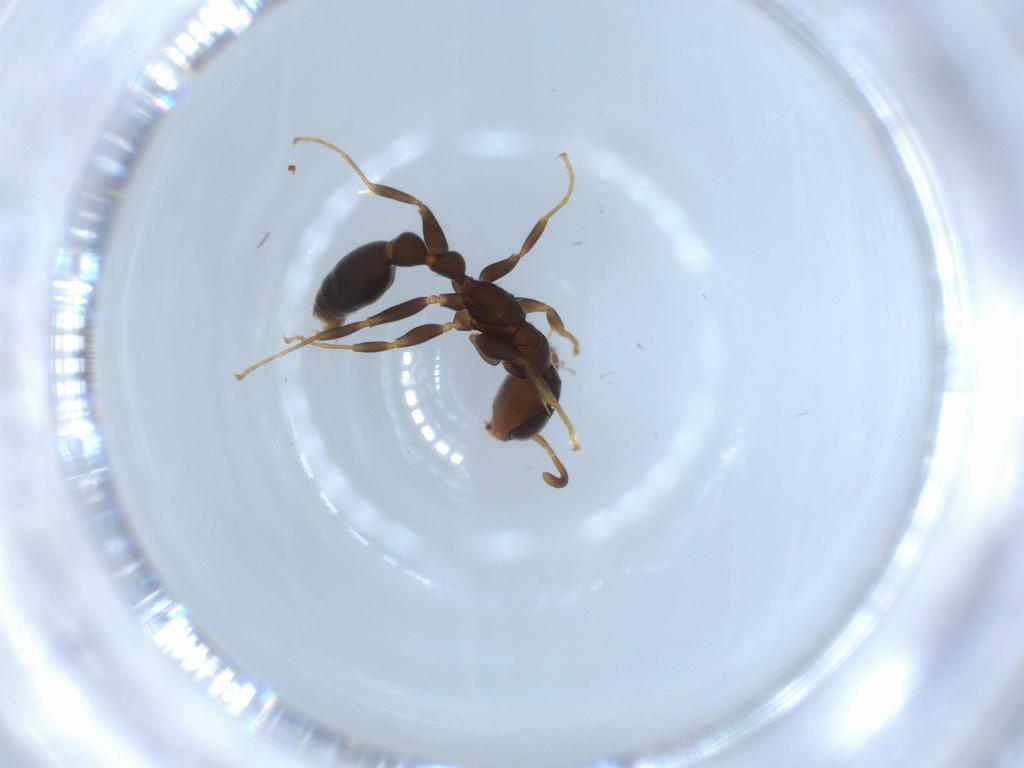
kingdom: Animalia
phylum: Arthropoda
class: Insecta
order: Hymenoptera
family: Formicidae
